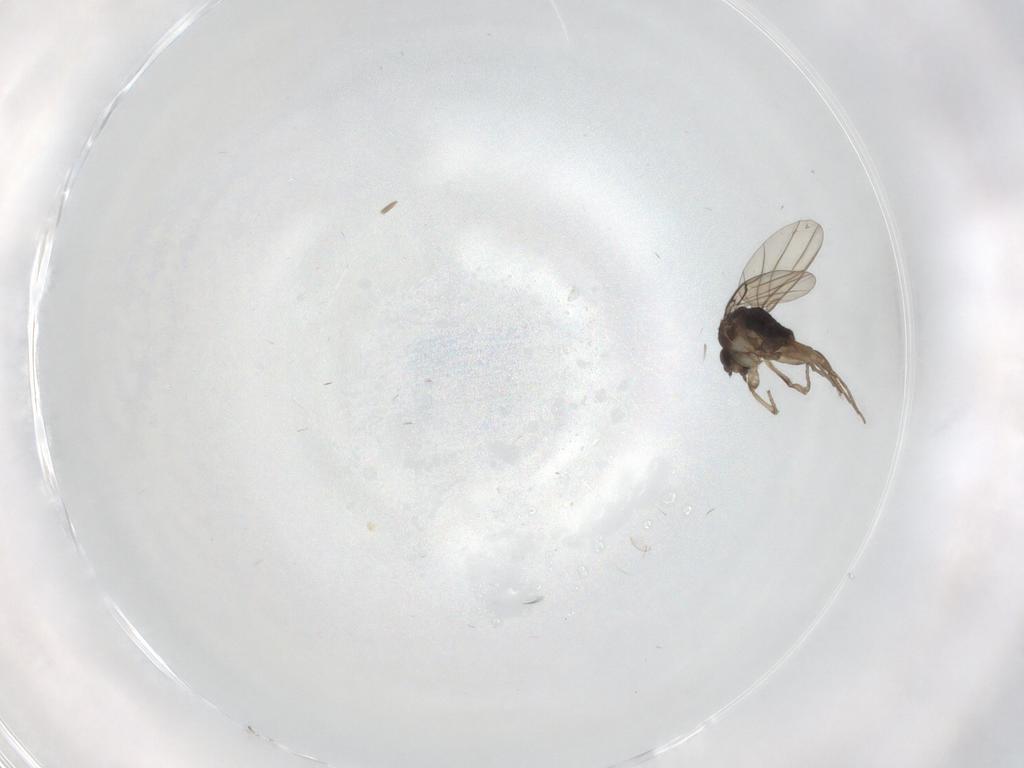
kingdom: Animalia
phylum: Arthropoda
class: Insecta
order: Diptera
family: Phoridae
